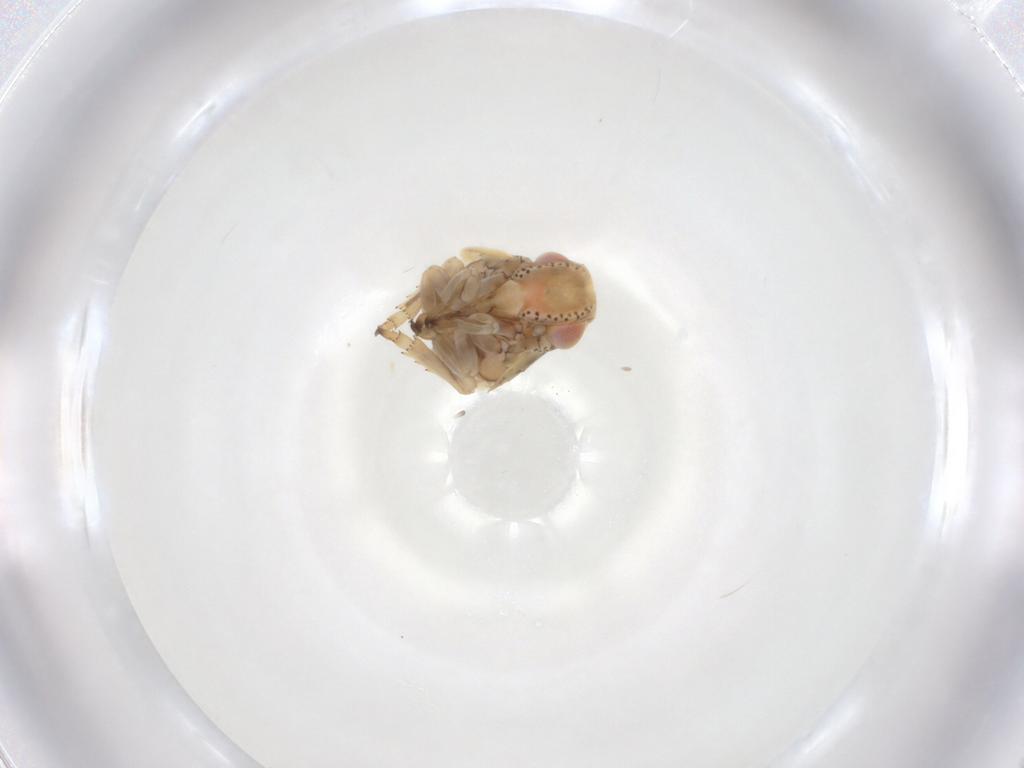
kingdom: Animalia
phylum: Arthropoda
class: Insecta
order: Hemiptera
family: Nogodinidae
